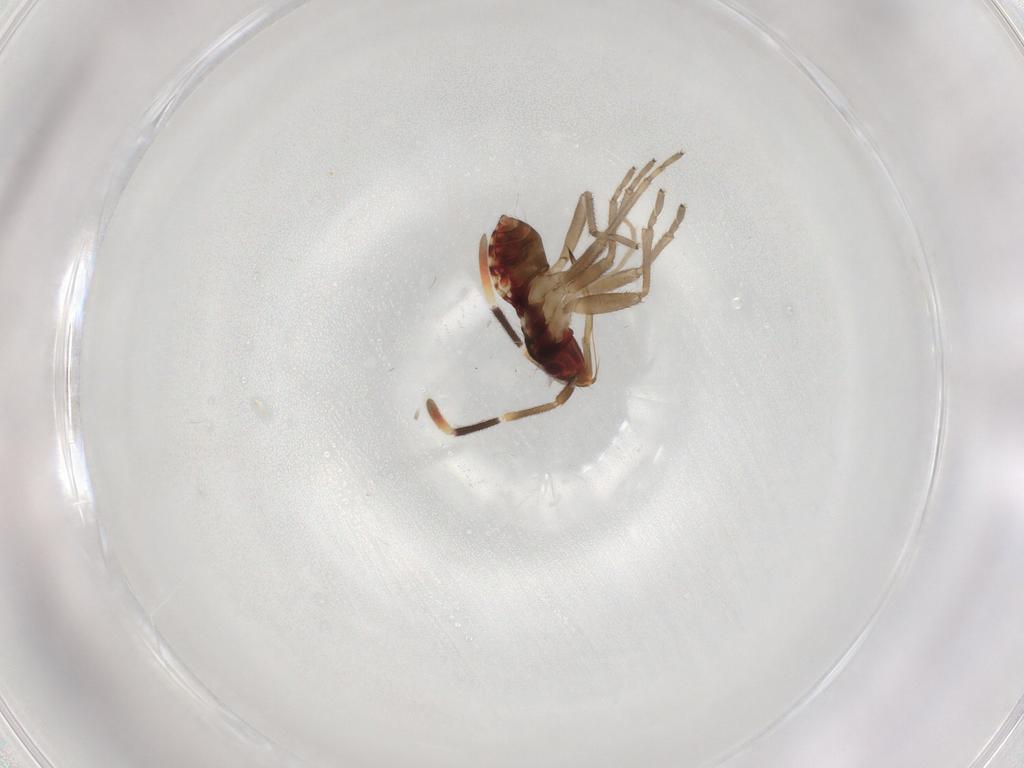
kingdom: Animalia
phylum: Arthropoda
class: Insecta
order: Hemiptera
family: Rhyparochromidae
